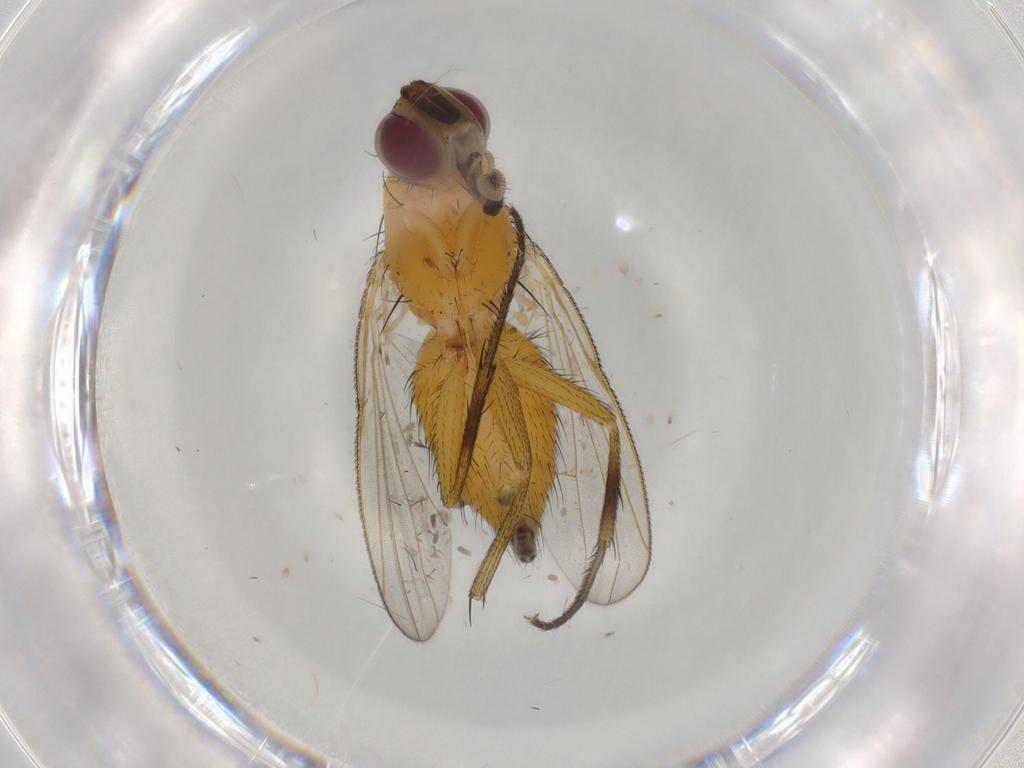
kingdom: Animalia
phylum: Arthropoda
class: Insecta
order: Diptera
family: Muscidae
